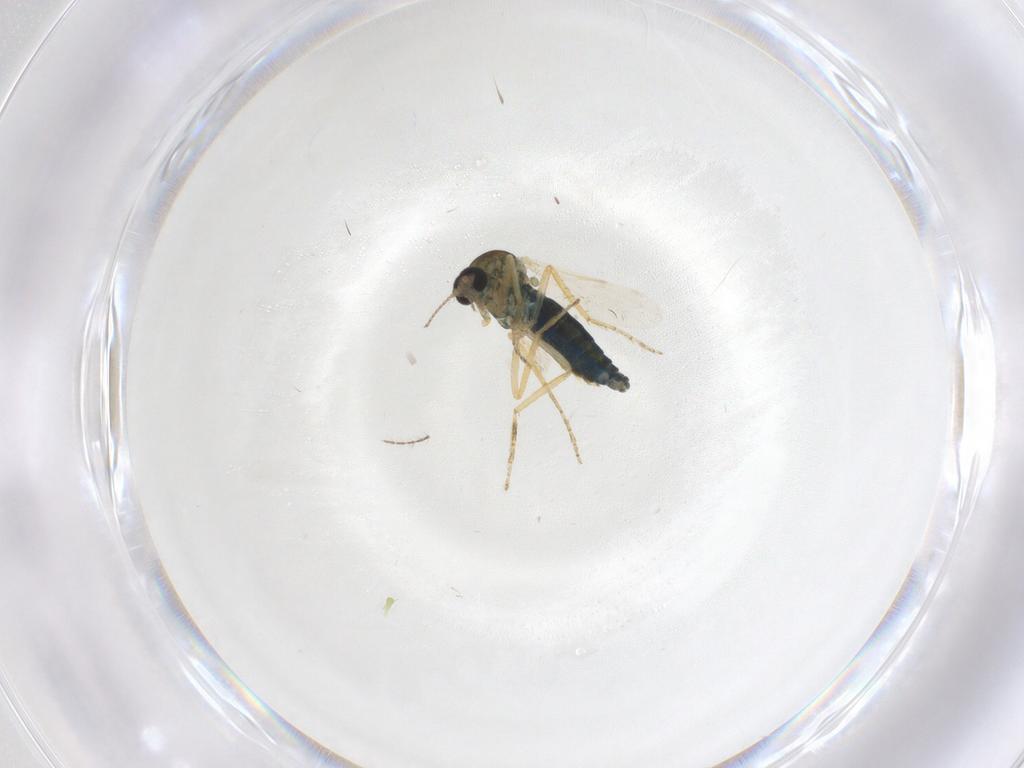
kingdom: Animalia
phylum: Arthropoda
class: Insecta
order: Diptera
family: Ceratopogonidae
